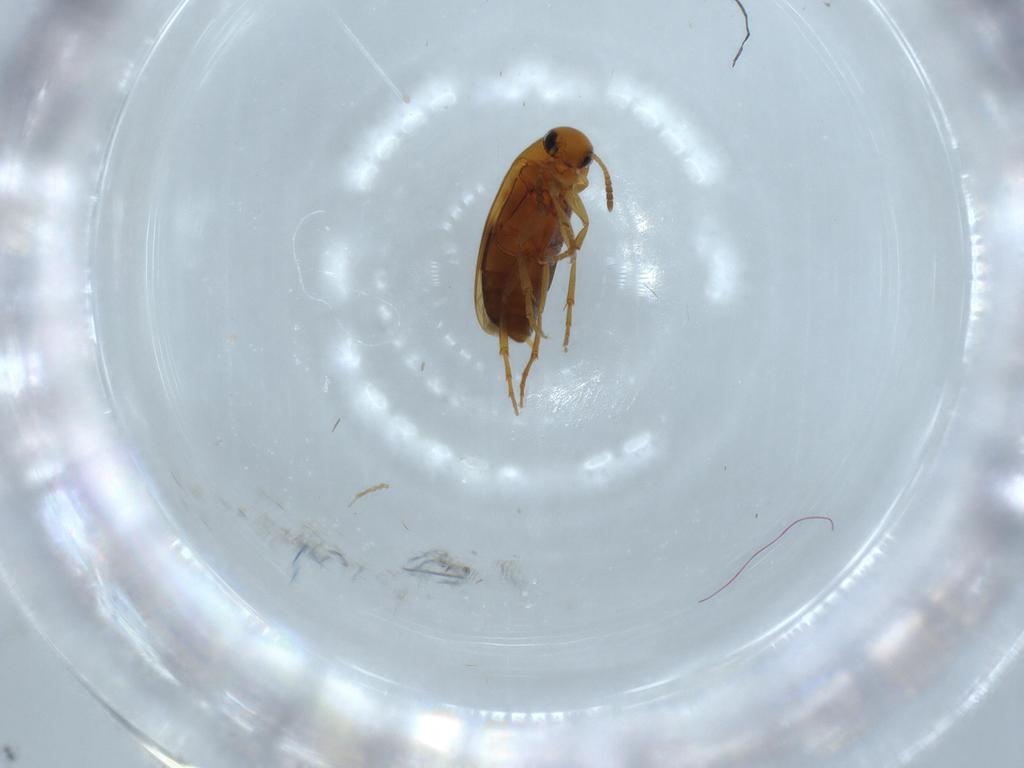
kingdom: Animalia
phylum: Arthropoda
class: Insecta
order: Coleoptera
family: Scraptiidae
